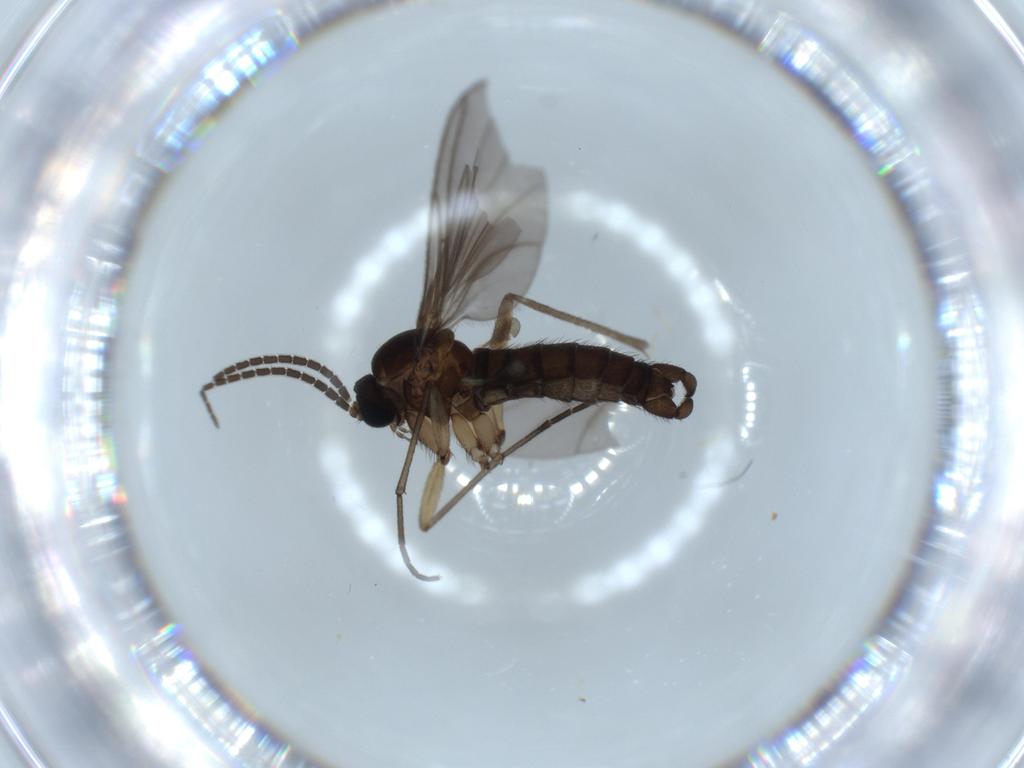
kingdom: Animalia
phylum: Arthropoda
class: Insecta
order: Diptera
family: Sciaridae
